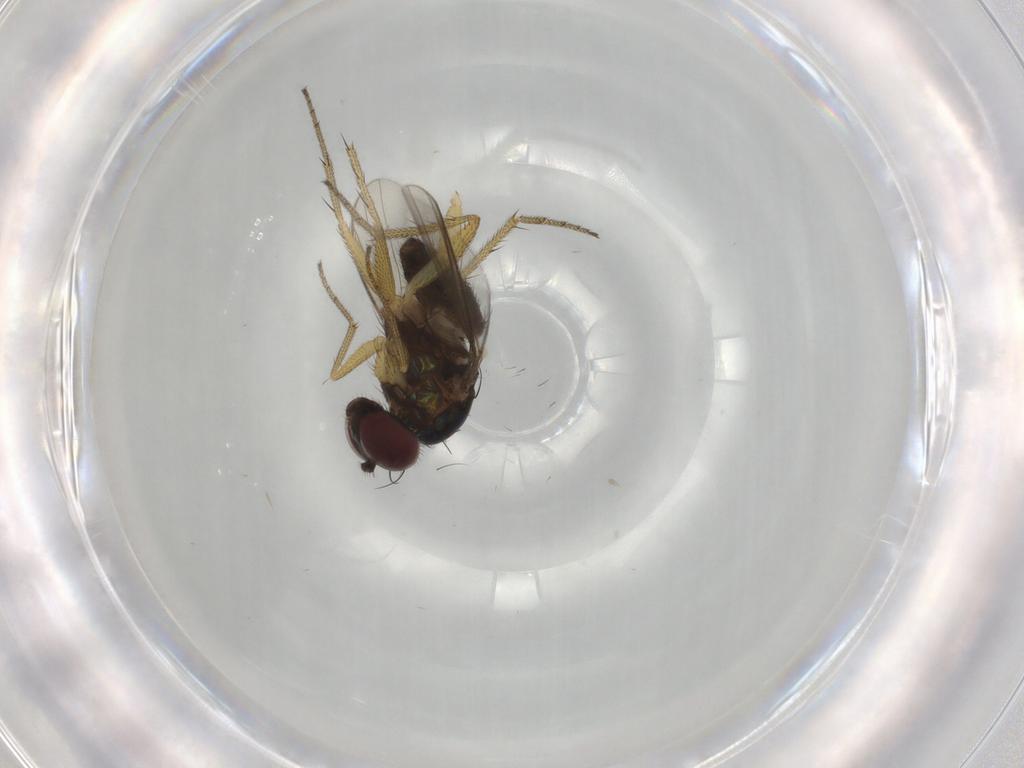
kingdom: Animalia
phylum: Arthropoda
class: Insecta
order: Diptera
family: Dolichopodidae
